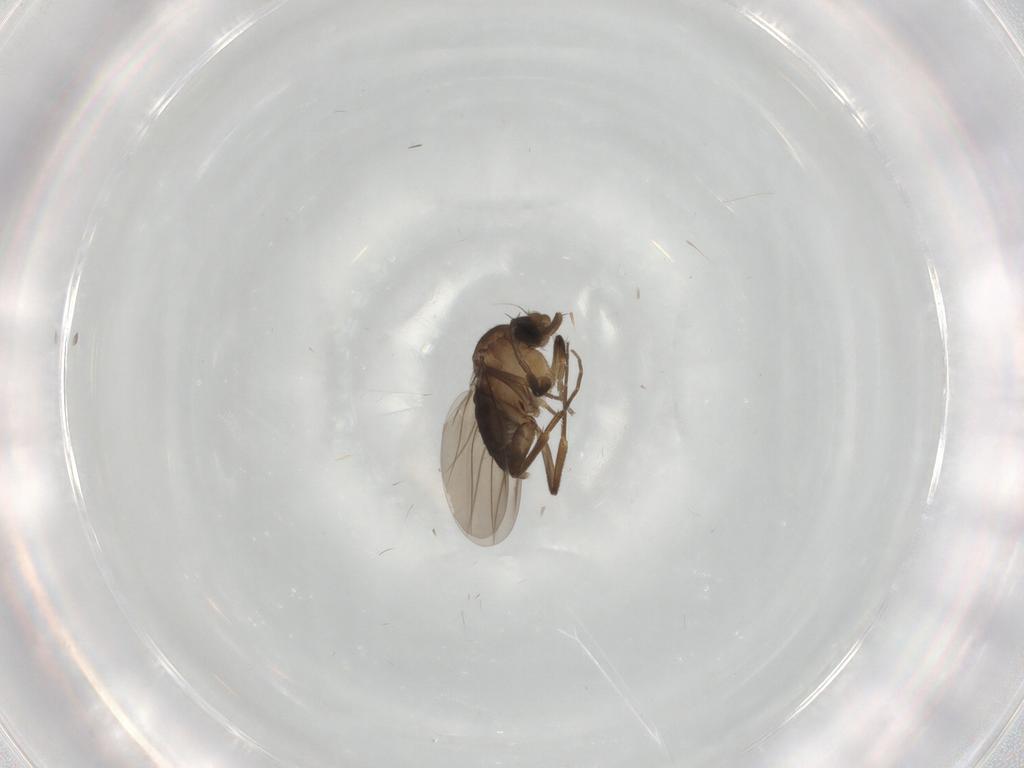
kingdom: Animalia
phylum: Arthropoda
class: Insecta
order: Diptera
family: Phoridae
